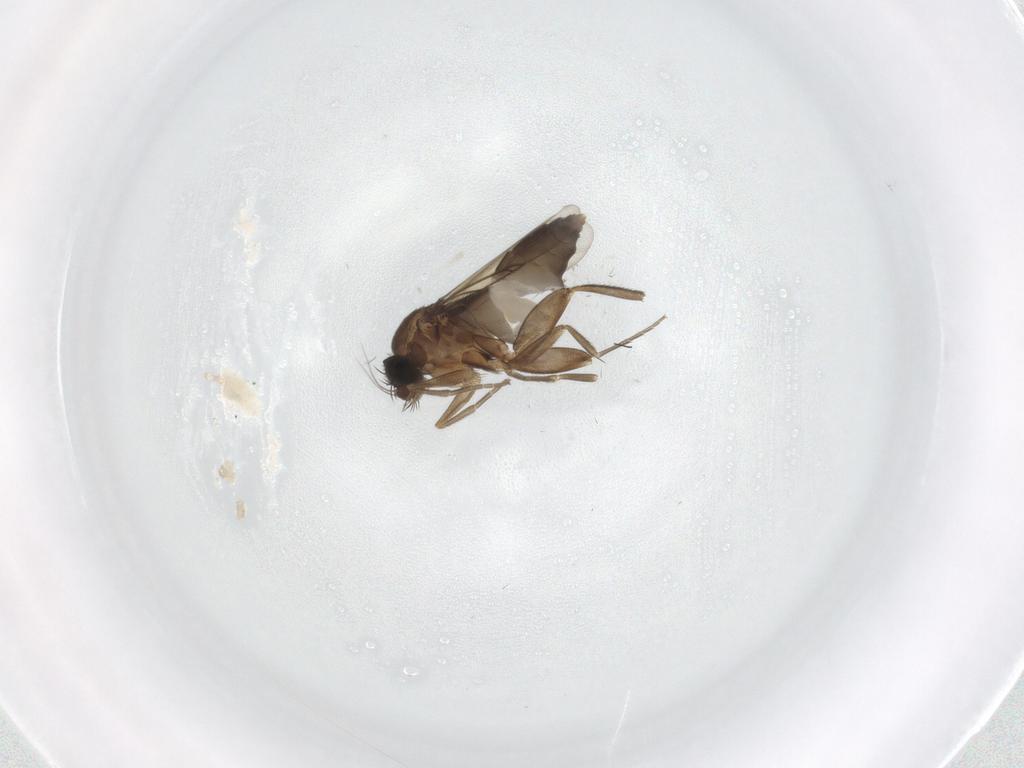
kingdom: Animalia
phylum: Arthropoda
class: Insecta
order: Diptera
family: Phoridae
